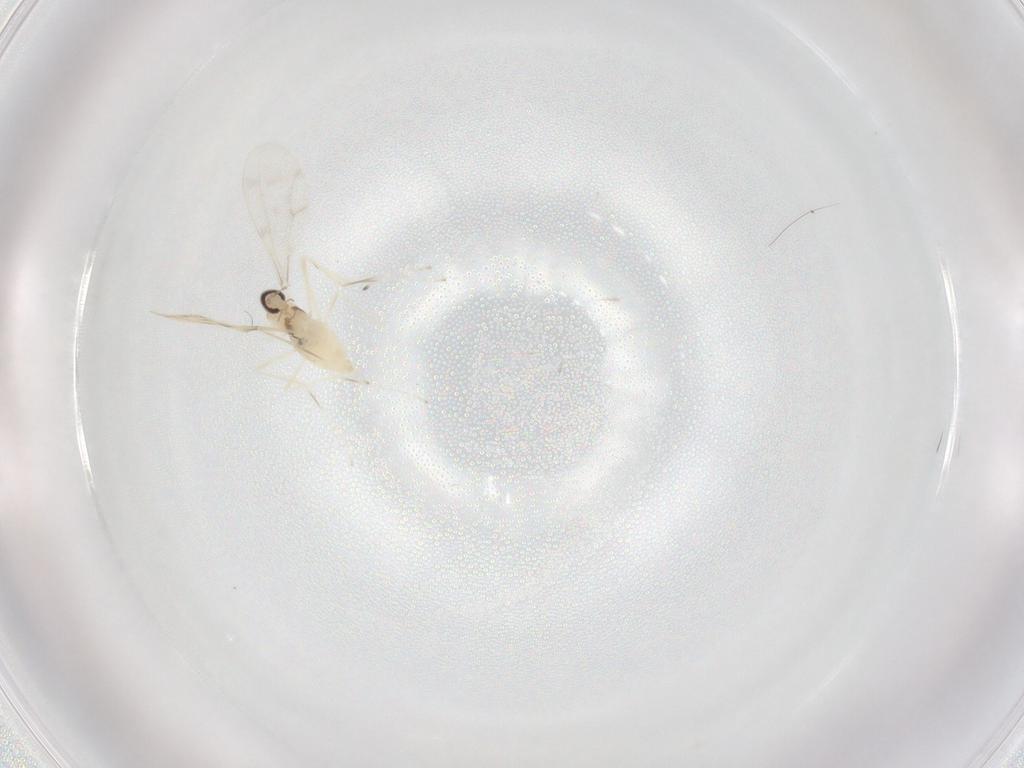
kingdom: Animalia
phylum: Arthropoda
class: Insecta
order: Diptera
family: Cecidomyiidae
